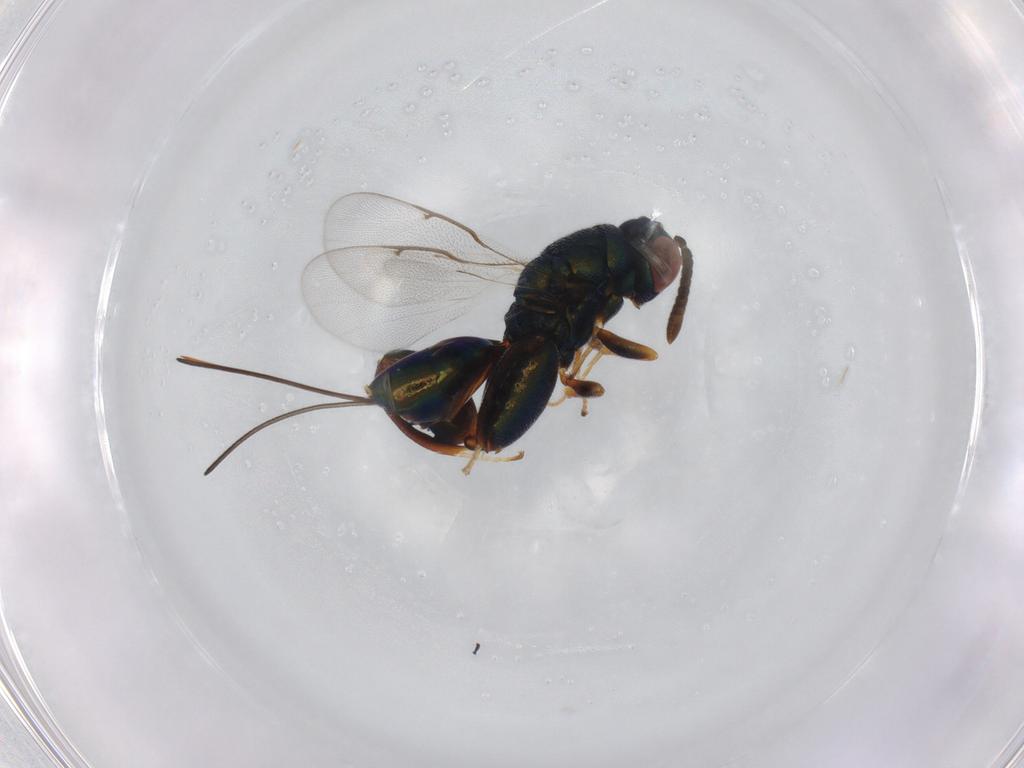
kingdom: Animalia
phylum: Arthropoda
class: Insecta
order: Hymenoptera
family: Torymidae
